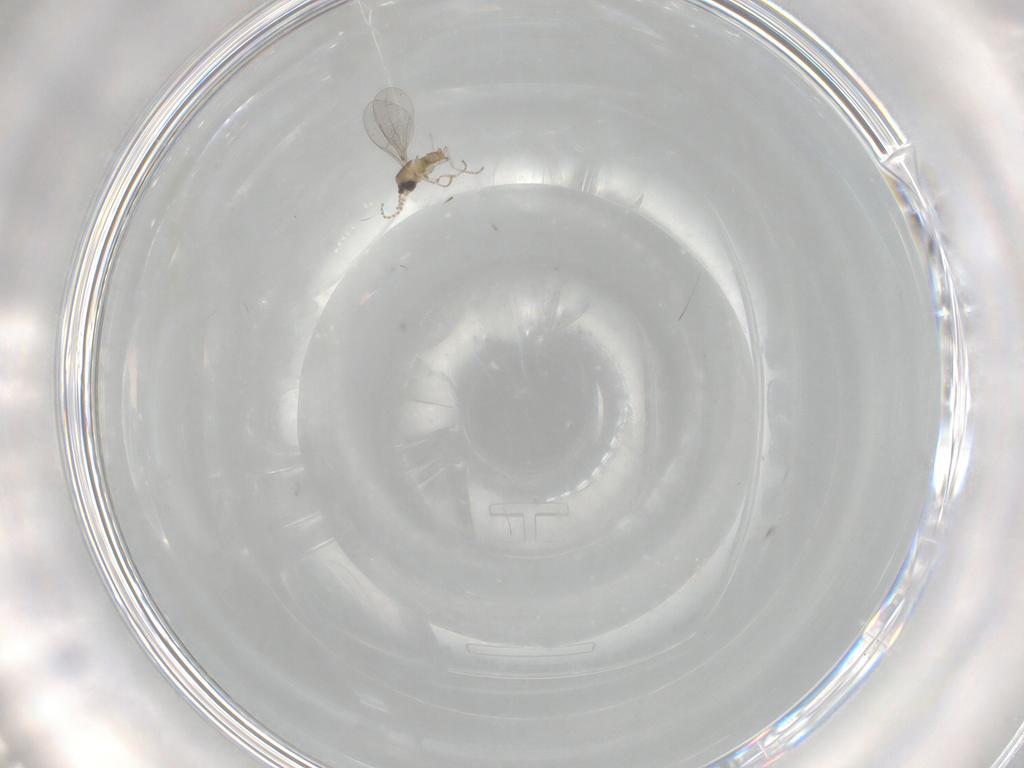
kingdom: Animalia
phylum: Arthropoda
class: Insecta
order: Diptera
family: Cecidomyiidae
